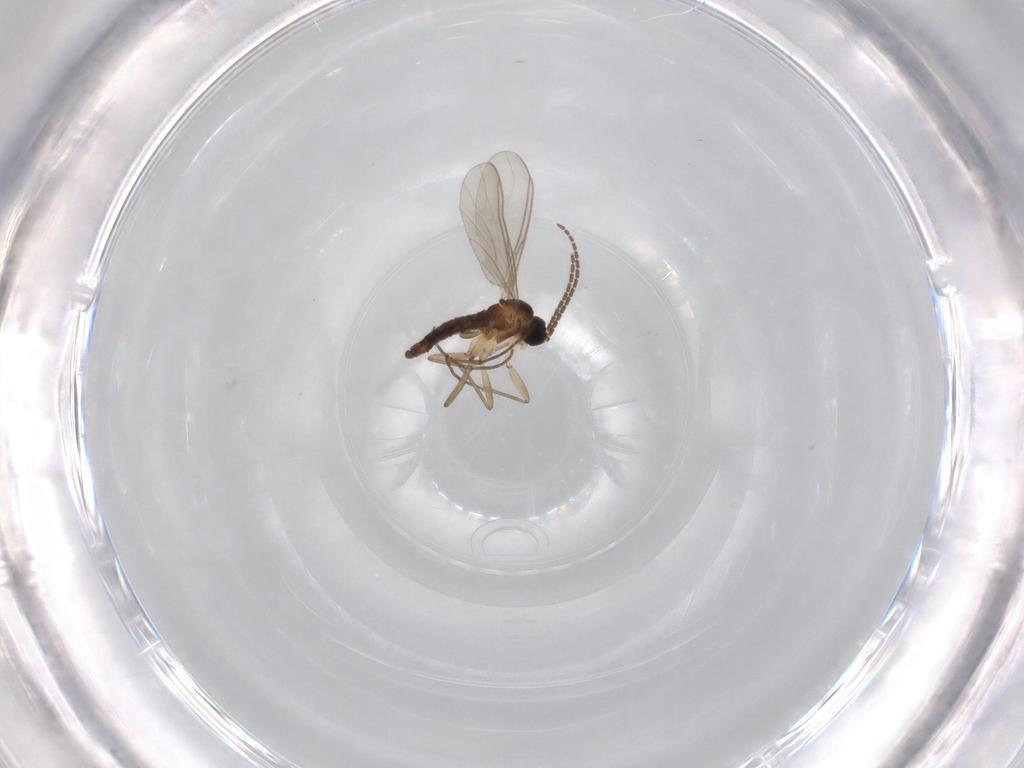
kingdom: Animalia
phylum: Arthropoda
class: Insecta
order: Diptera
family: Sciaridae
